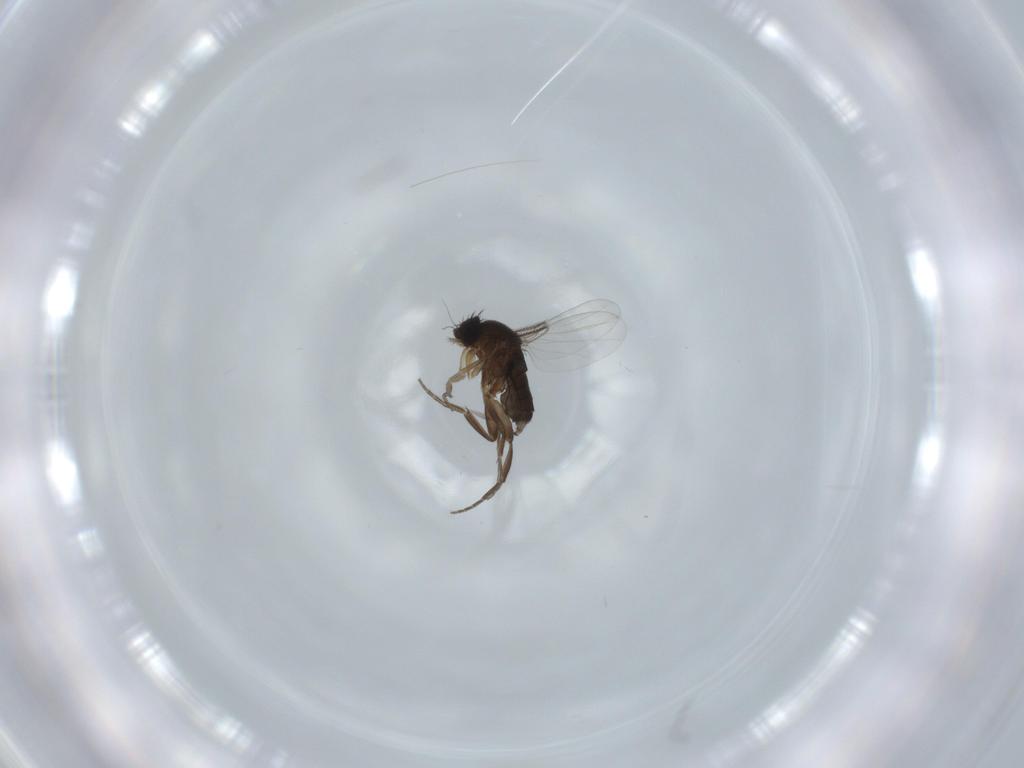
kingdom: Animalia
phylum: Arthropoda
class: Insecta
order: Diptera
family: Phoridae
